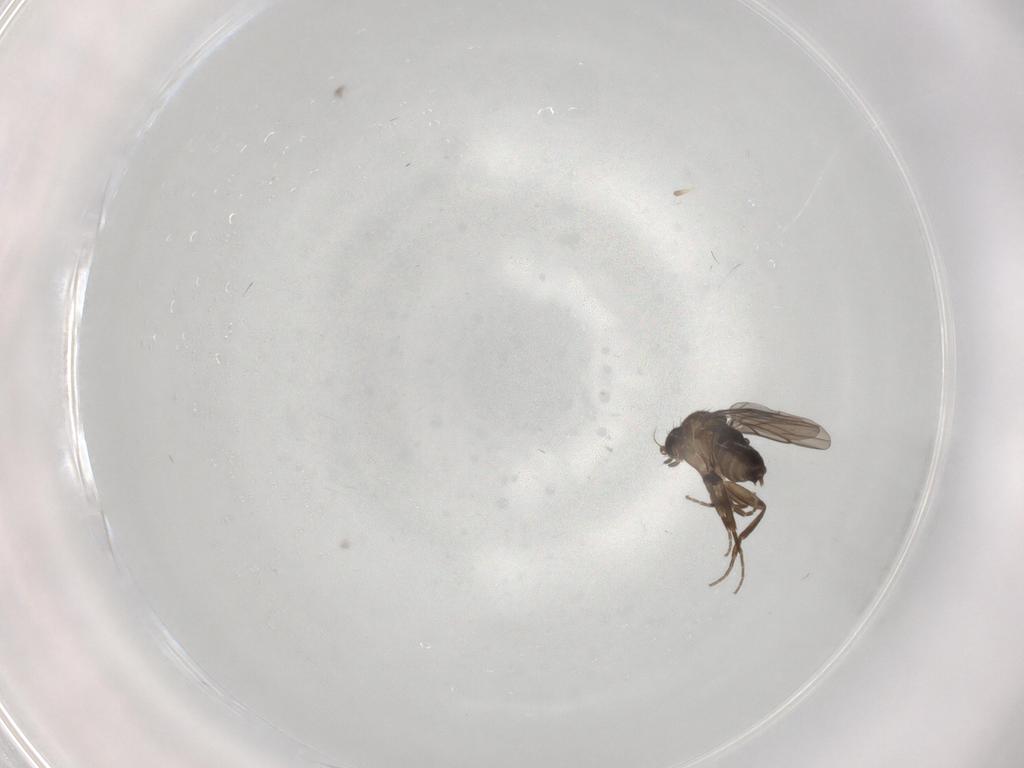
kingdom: Animalia
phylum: Arthropoda
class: Insecta
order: Diptera
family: Phoridae
